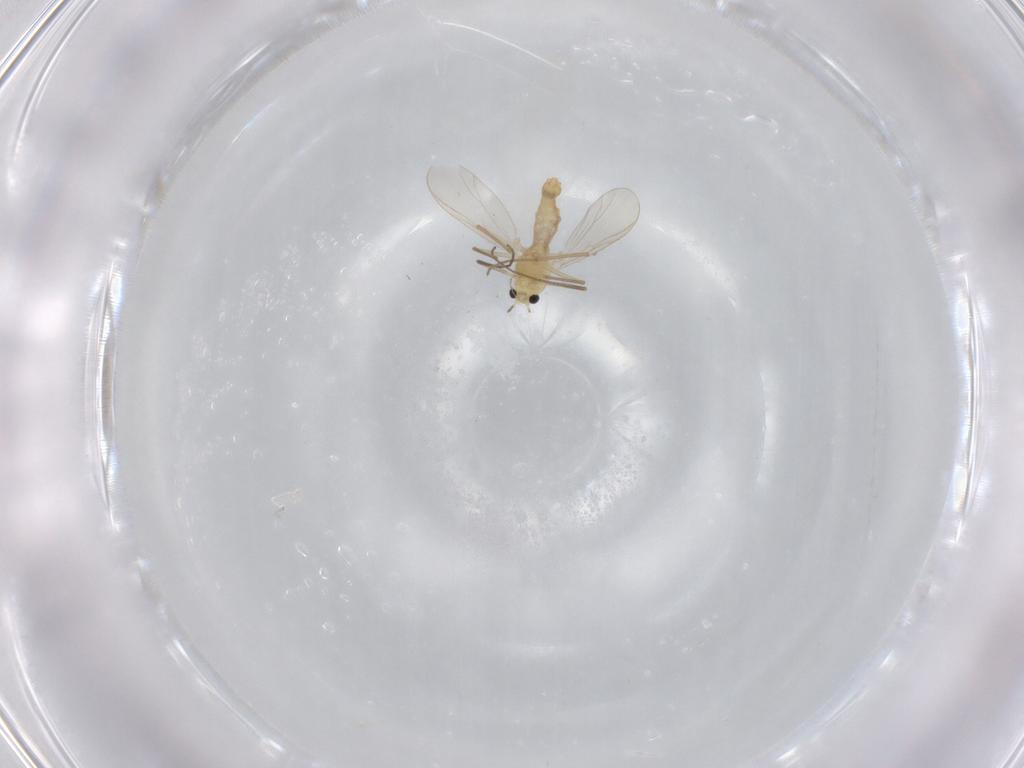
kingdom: Animalia
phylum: Arthropoda
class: Insecta
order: Diptera
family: Chironomidae
